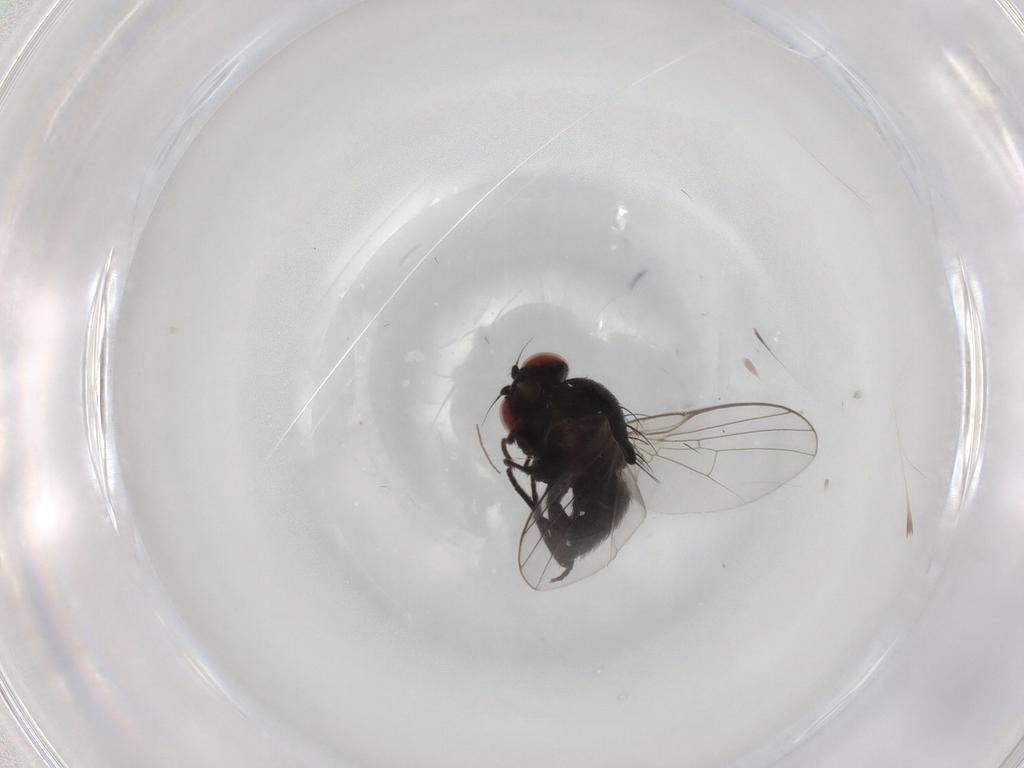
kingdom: Animalia
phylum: Arthropoda
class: Insecta
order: Diptera
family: Agromyzidae
